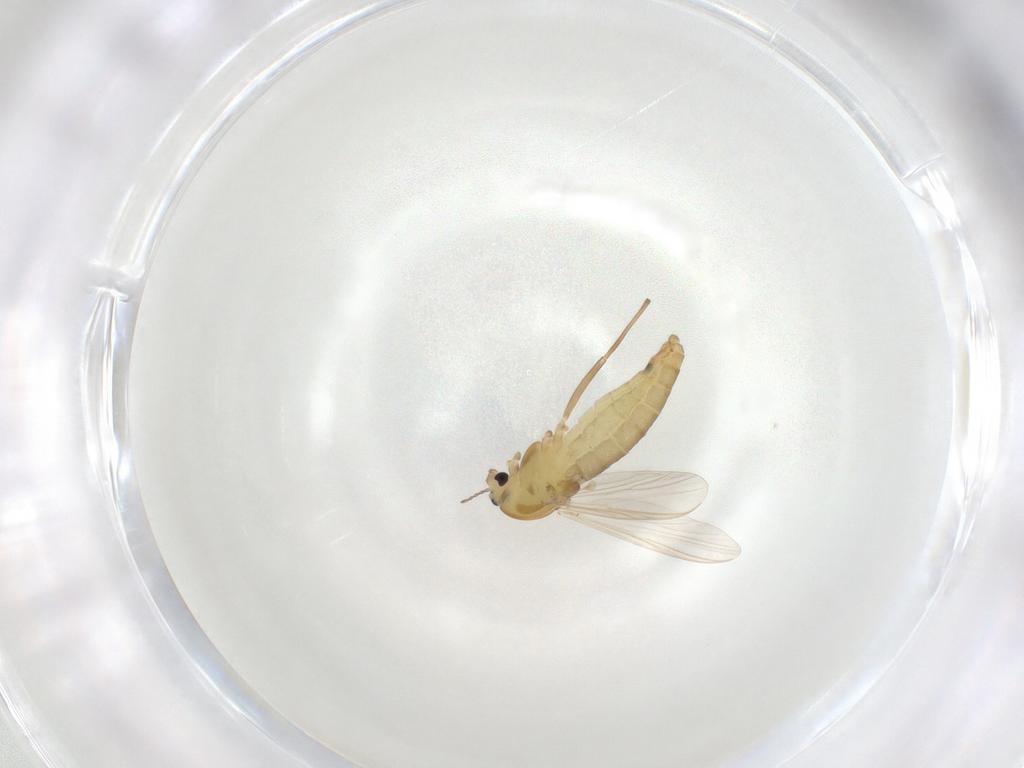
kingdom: Animalia
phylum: Arthropoda
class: Insecta
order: Diptera
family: Chironomidae
